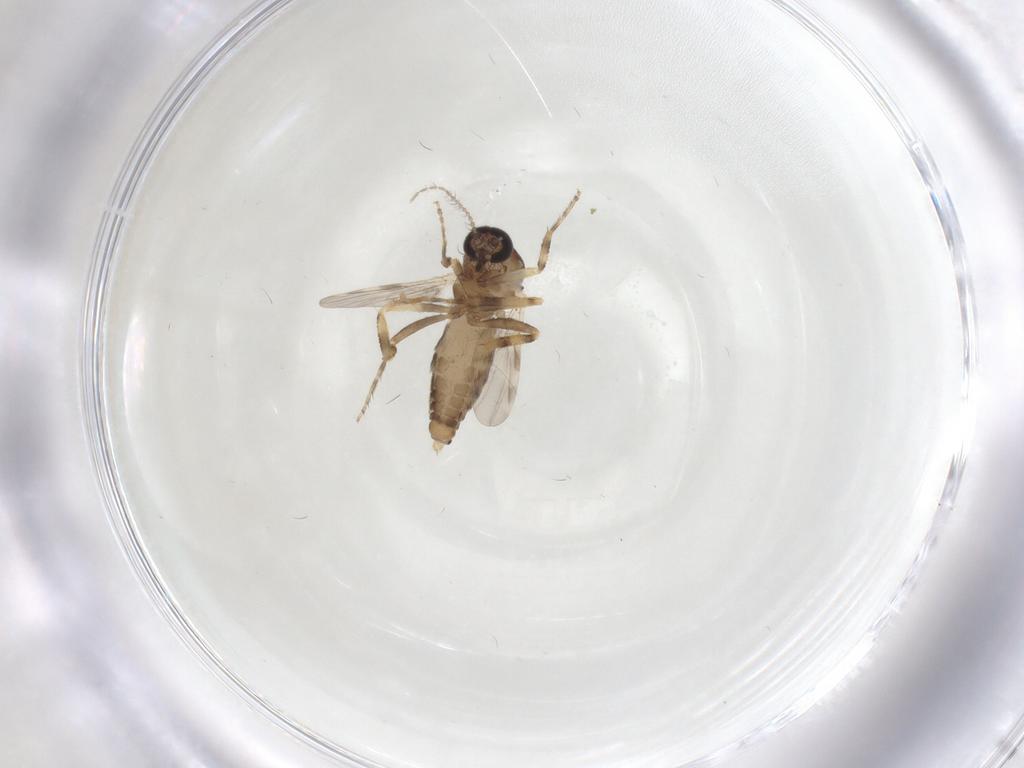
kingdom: Animalia
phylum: Arthropoda
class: Insecta
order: Diptera
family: Ceratopogonidae
